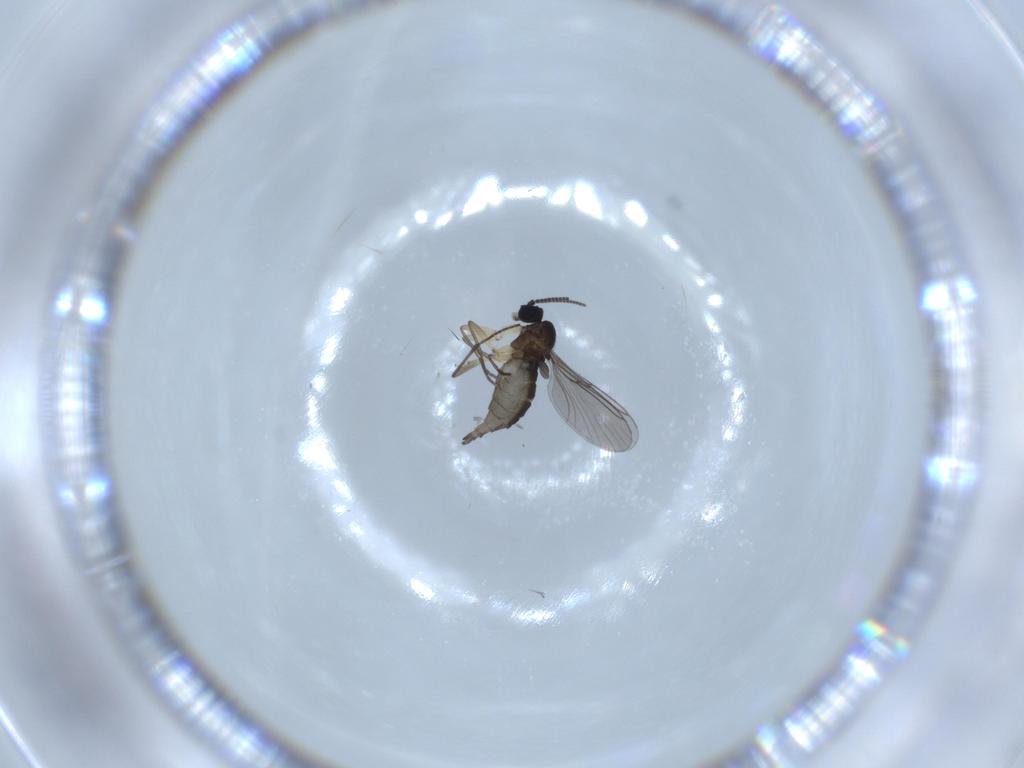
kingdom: Animalia
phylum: Arthropoda
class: Insecta
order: Diptera
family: Sciaridae
